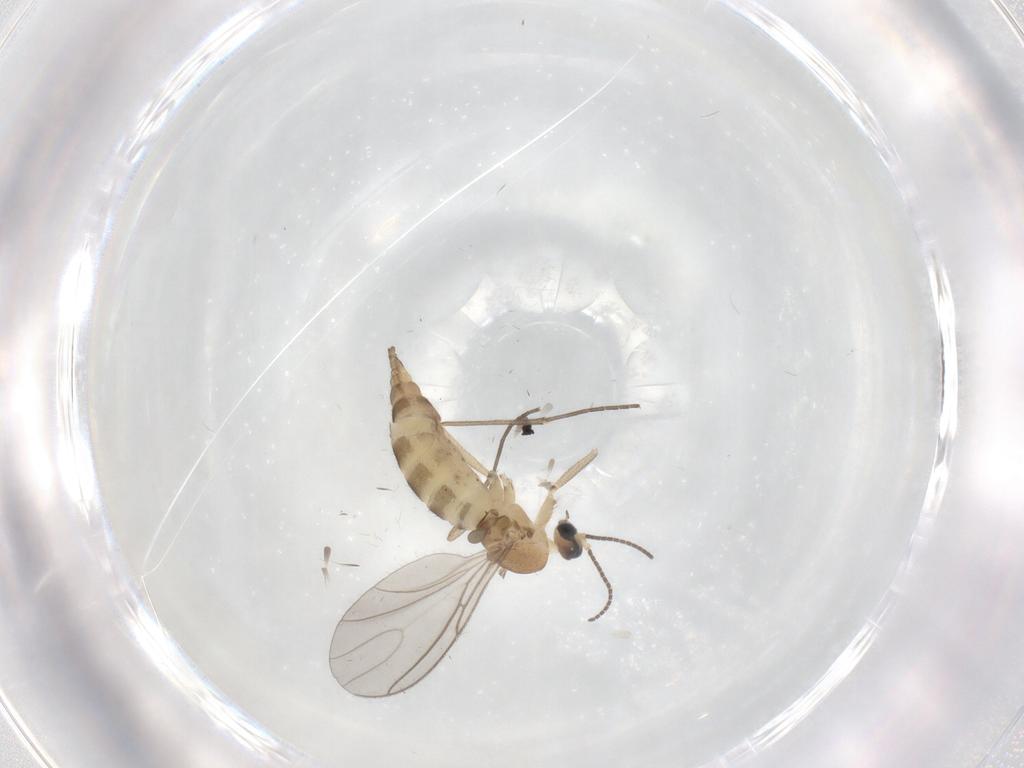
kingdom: Animalia
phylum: Arthropoda
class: Insecta
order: Diptera
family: Sciaridae
